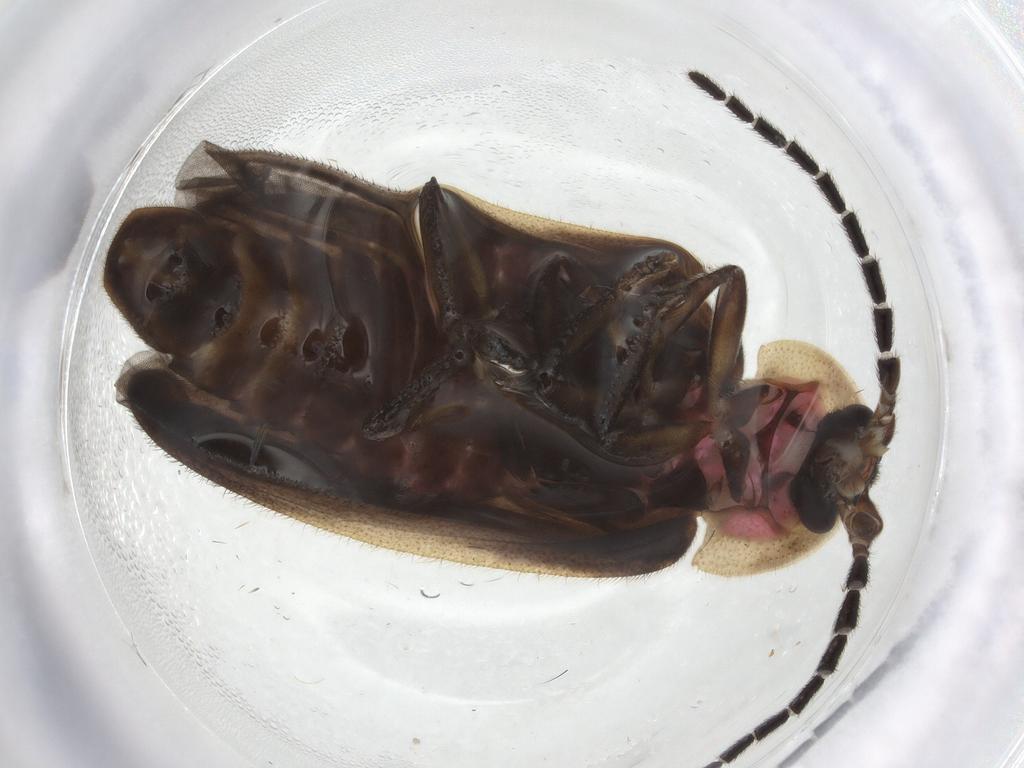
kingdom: Animalia
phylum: Arthropoda
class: Insecta
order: Coleoptera
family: Lampyridae
